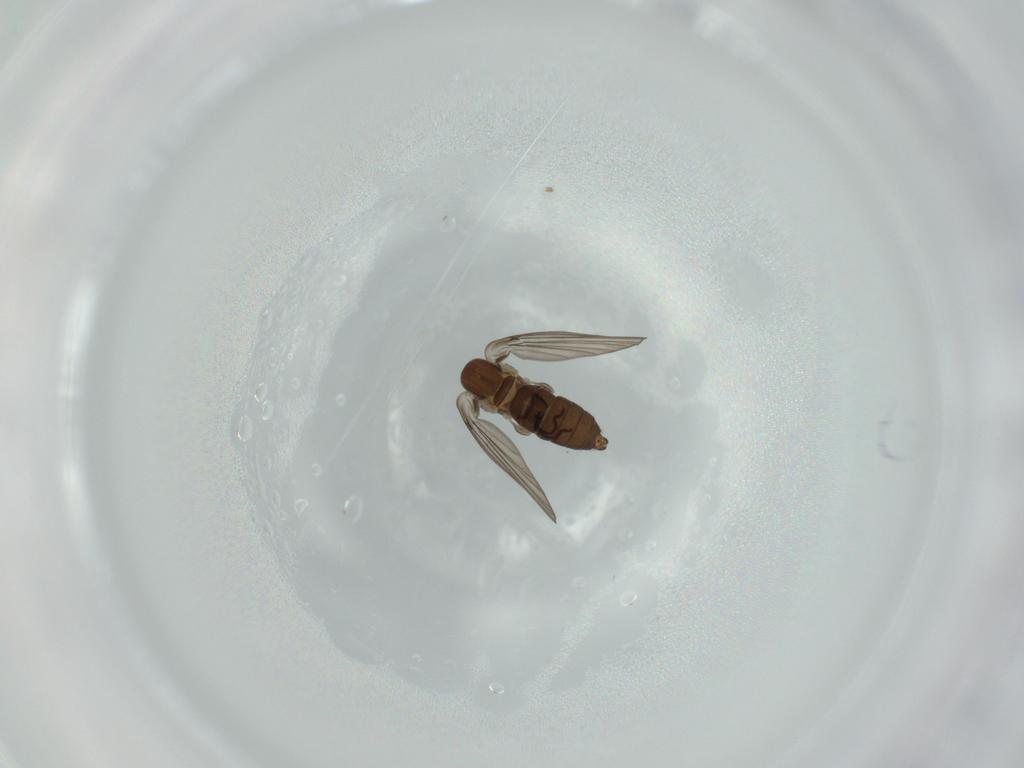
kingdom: Animalia
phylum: Arthropoda
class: Insecta
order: Diptera
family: Psychodidae
